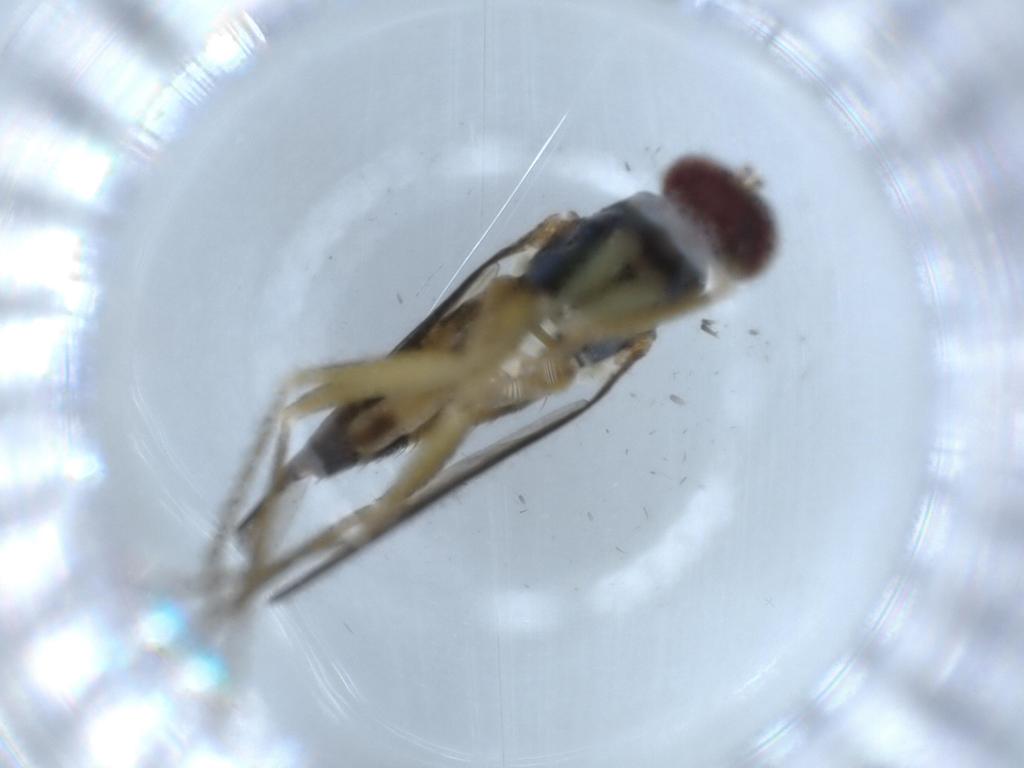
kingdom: Animalia
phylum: Arthropoda
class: Insecta
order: Diptera
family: Dolichopodidae
